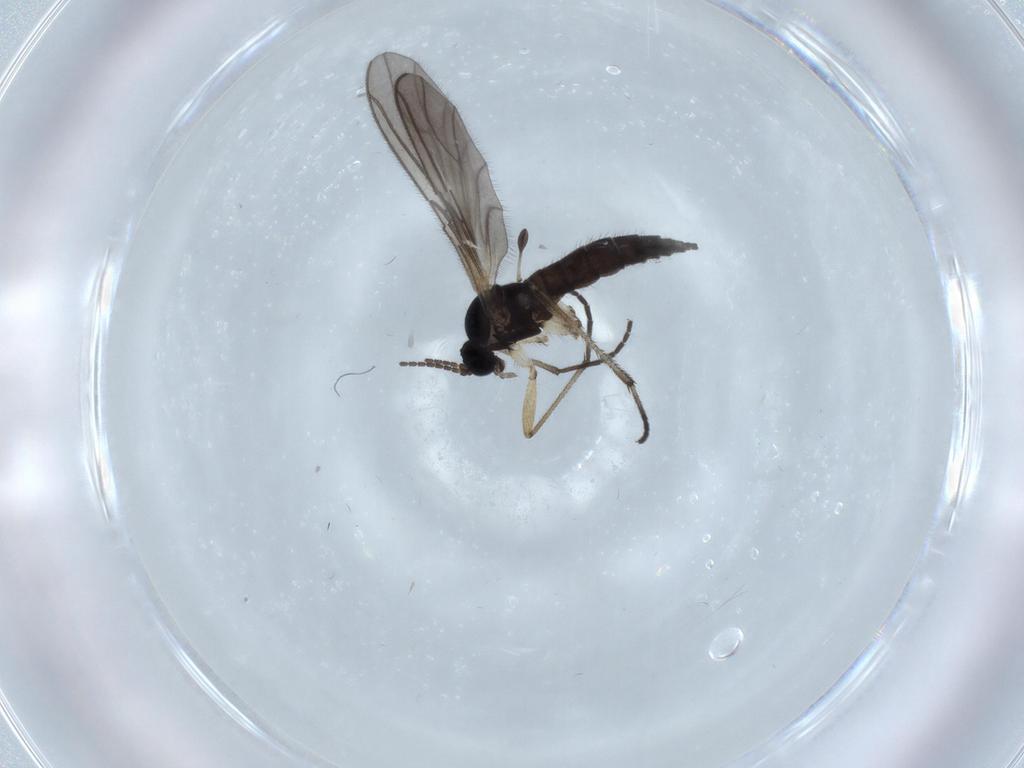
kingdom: Animalia
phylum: Arthropoda
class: Insecta
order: Diptera
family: Sciaridae
